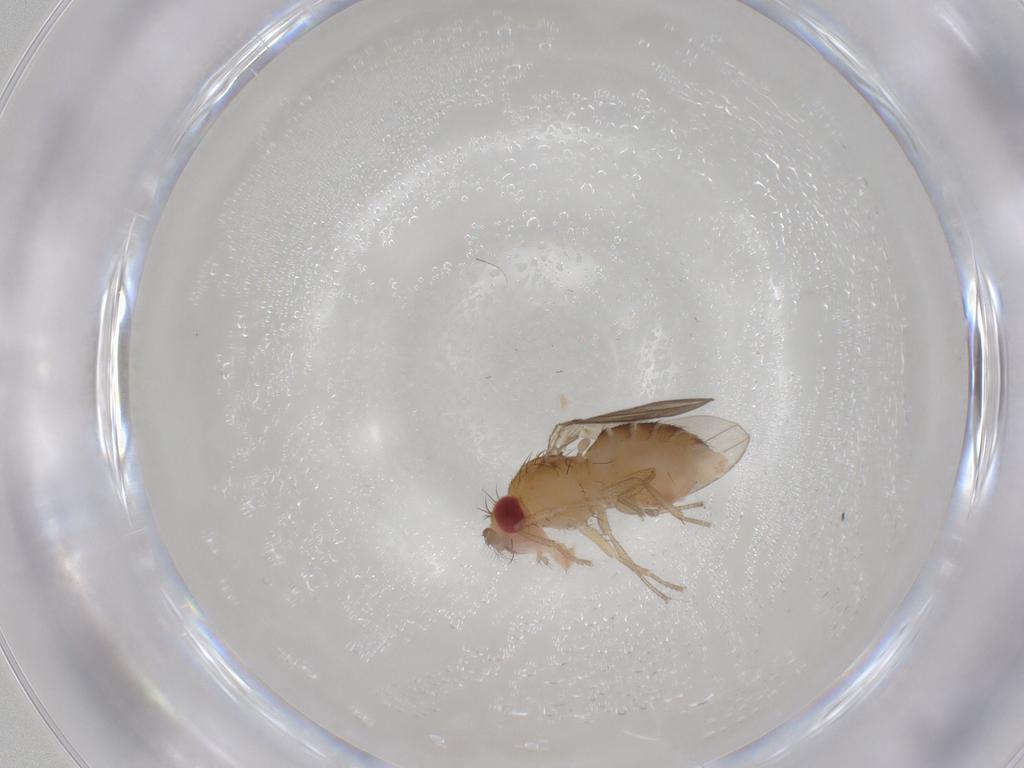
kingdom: Animalia
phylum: Arthropoda
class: Insecta
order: Diptera
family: Drosophilidae
